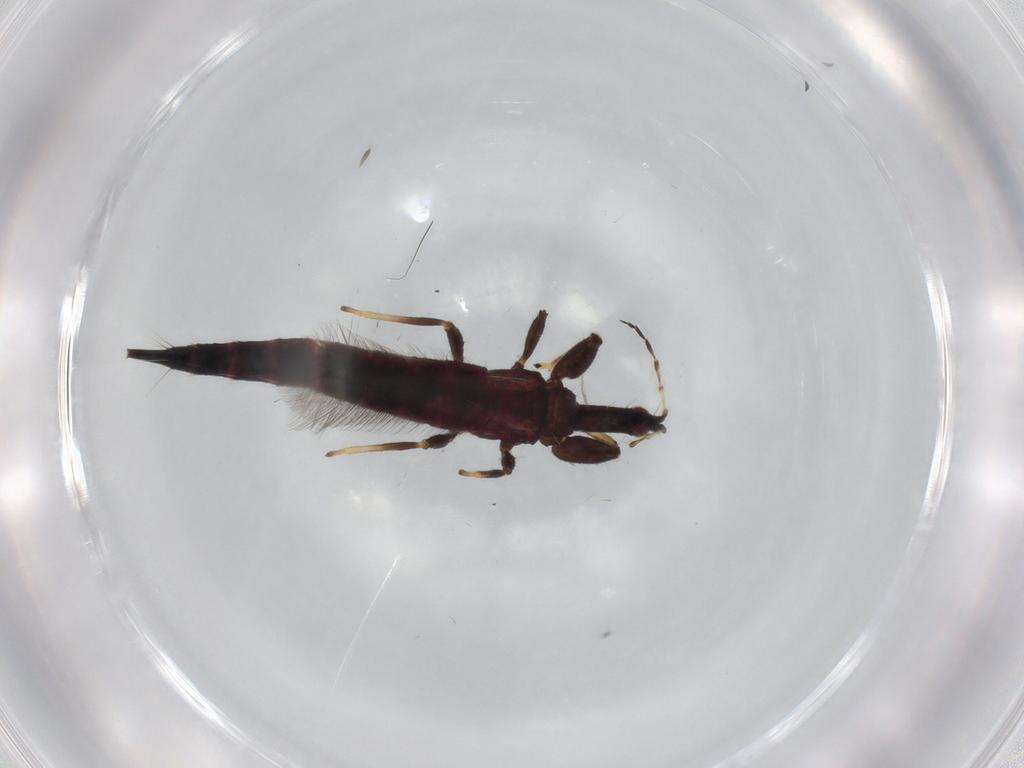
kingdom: Animalia
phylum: Arthropoda
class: Insecta
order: Thysanoptera
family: Phlaeothripidae
